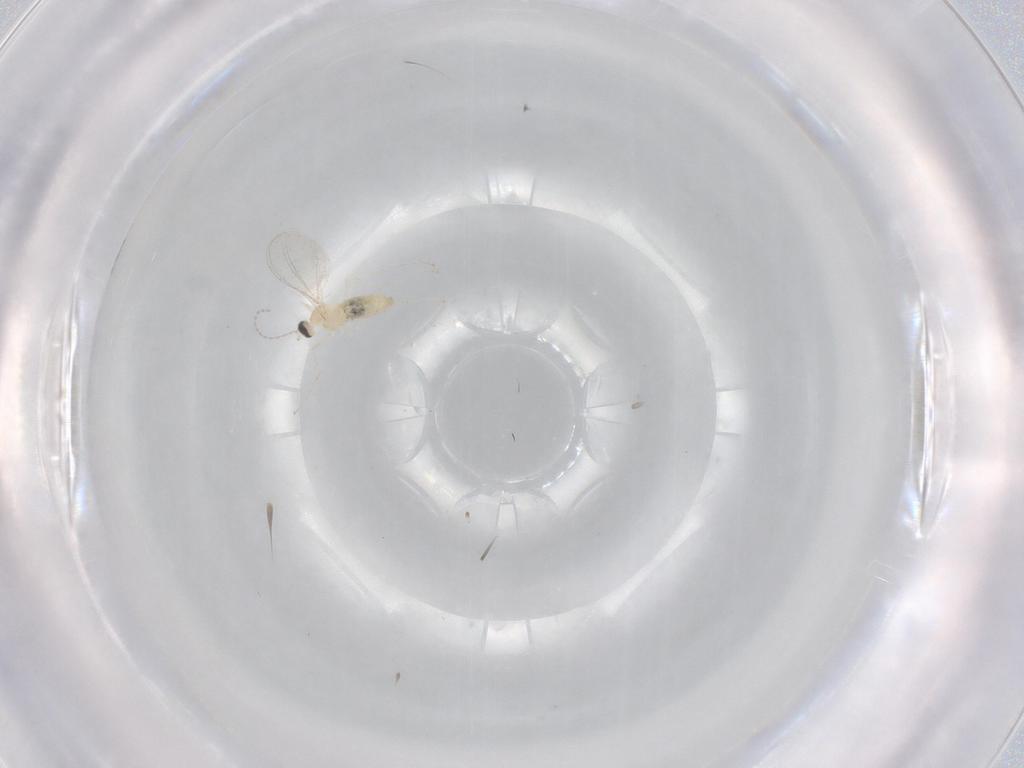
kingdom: Animalia
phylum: Arthropoda
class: Insecta
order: Diptera
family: Cecidomyiidae
